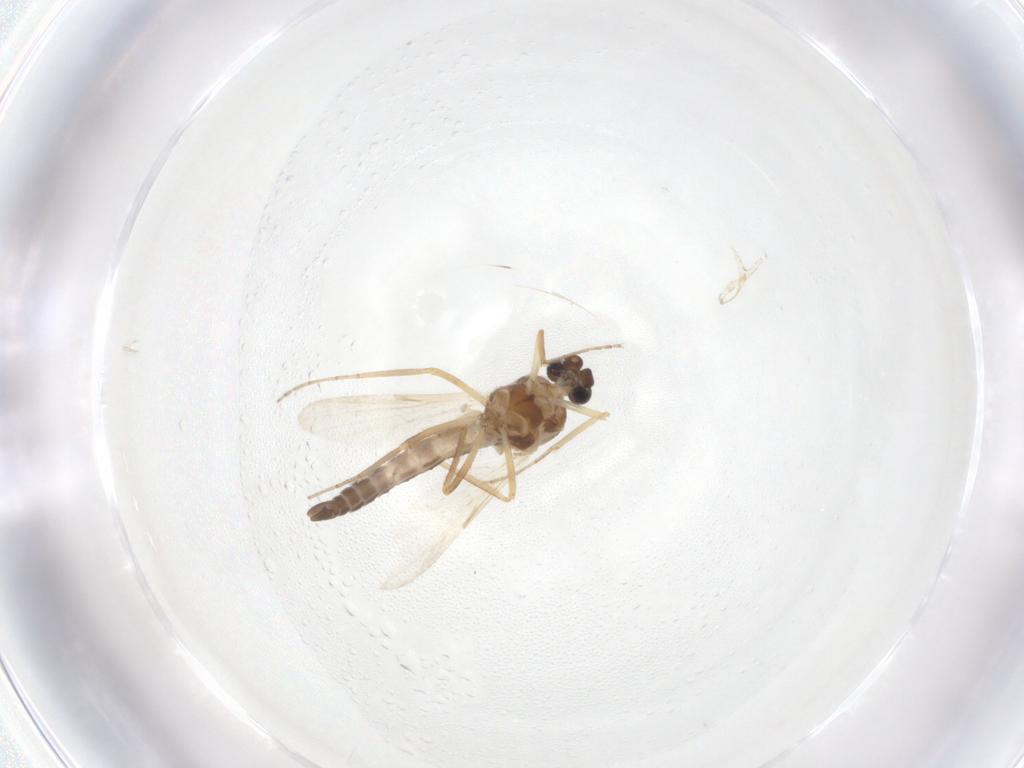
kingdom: Animalia
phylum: Arthropoda
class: Insecta
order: Diptera
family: Ceratopogonidae
